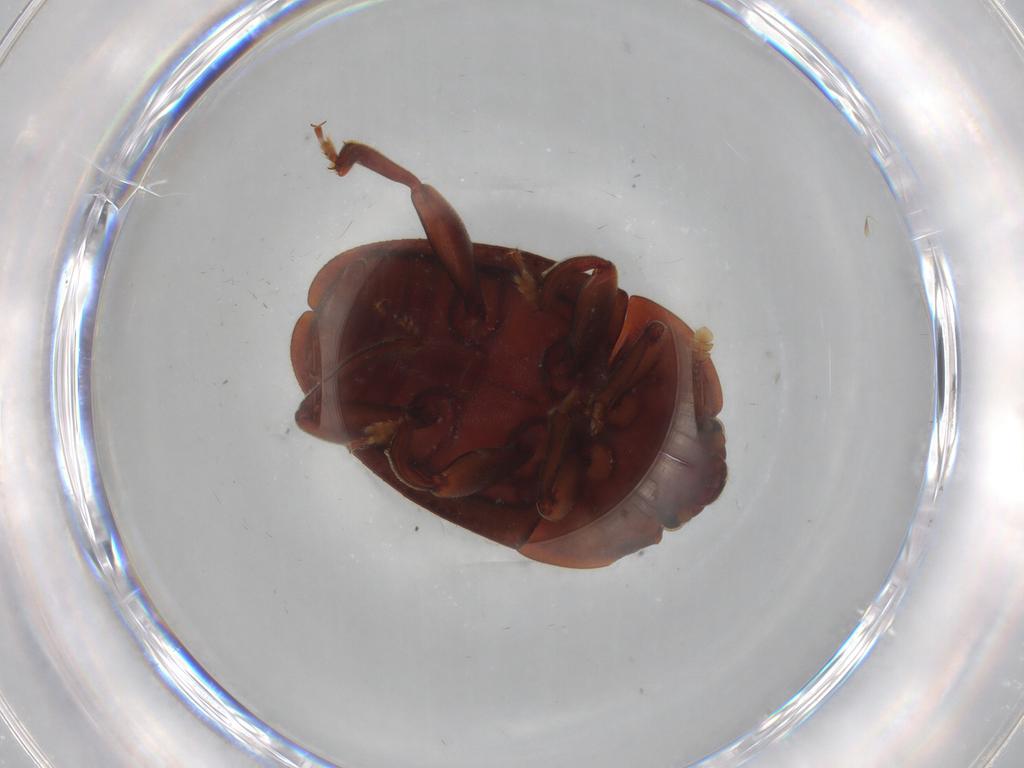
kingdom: Animalia
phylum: Arthropoda
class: Insecta
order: Coleoptera
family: Nitidulidae
